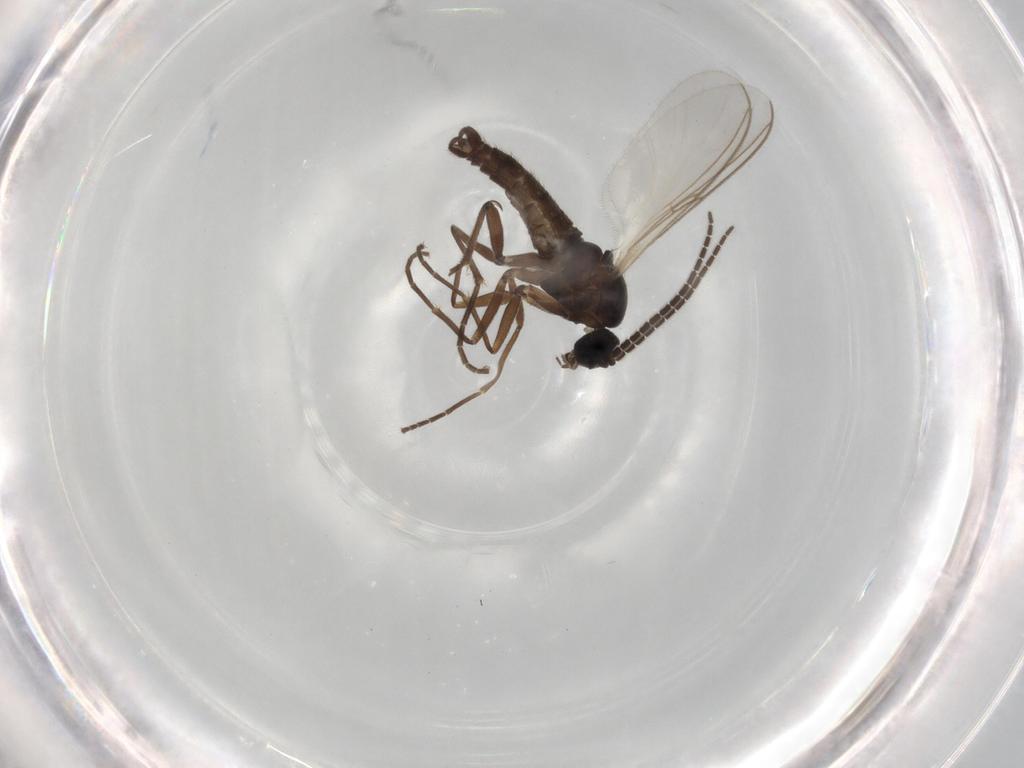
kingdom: Animalia
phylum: Arthropoda
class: Insecta
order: Diptera
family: Sciaridae
